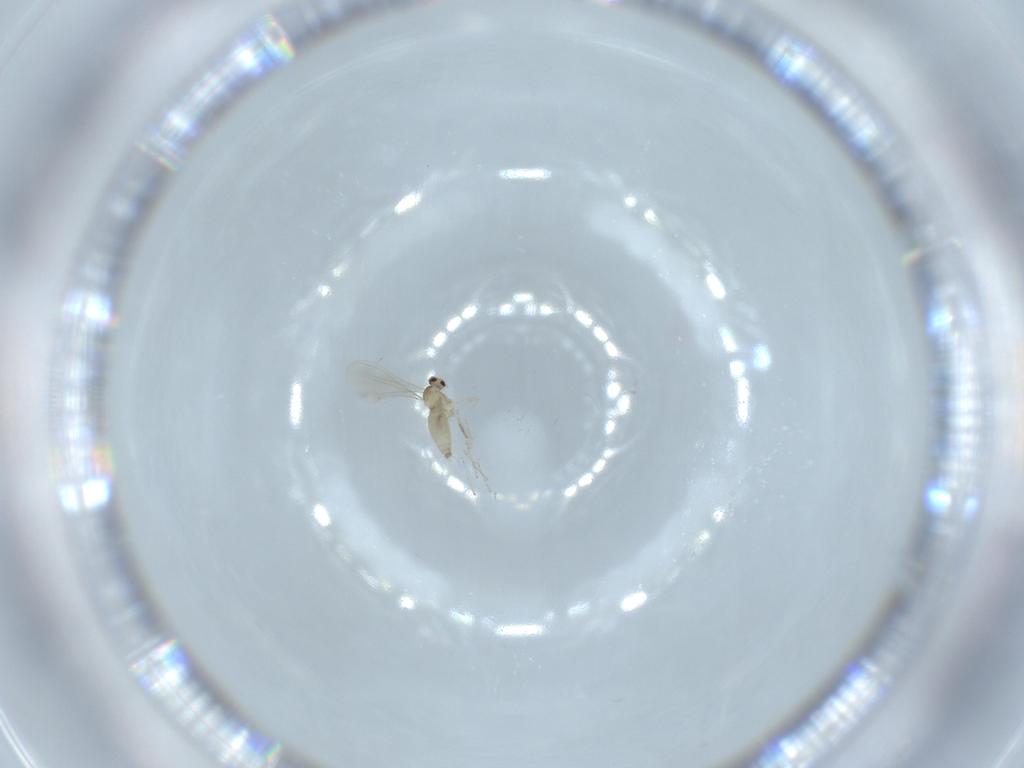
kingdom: Animalia
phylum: Arthropoda
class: Insecta
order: Diptera
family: Cecidomyiidae
